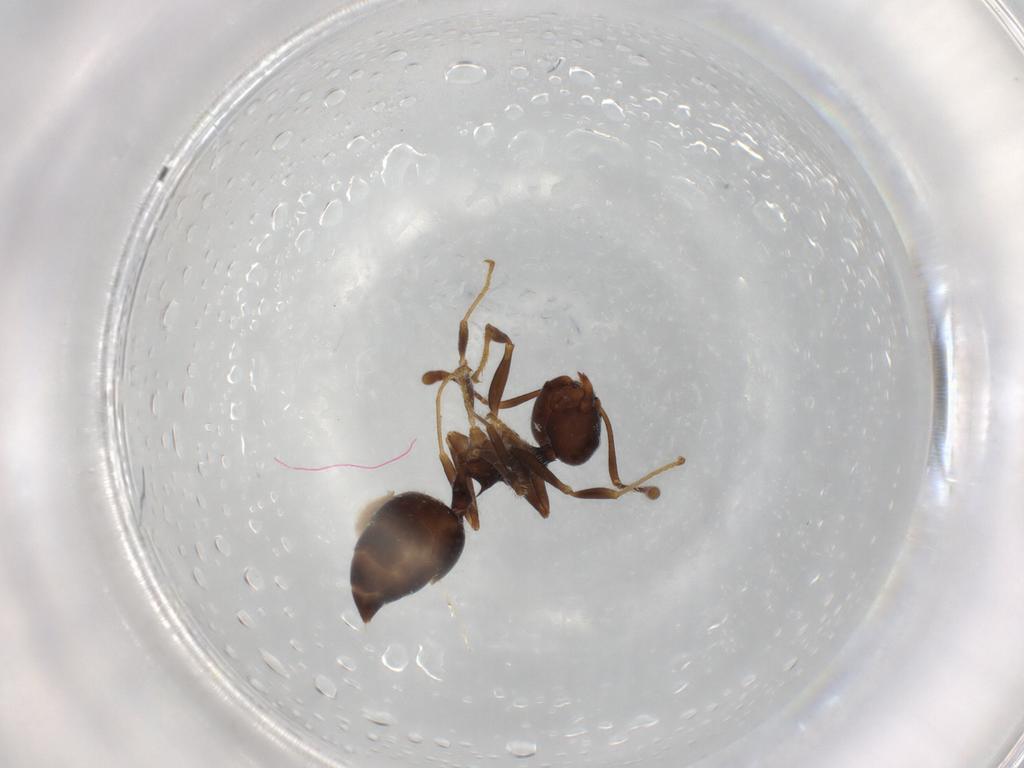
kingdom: Animalia
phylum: Arthropoda
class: Insecta
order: Hymenoptera
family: Formicidae
